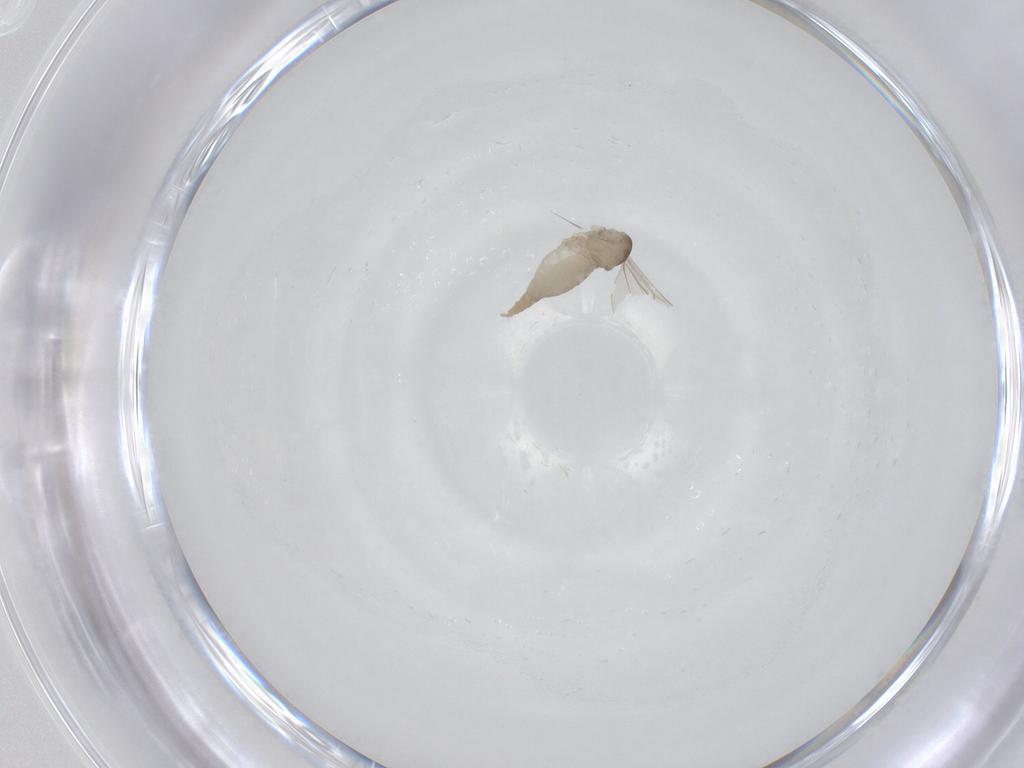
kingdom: Animalia
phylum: Arthropoda
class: Insecta
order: Diptera
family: Cecidomyiidae
